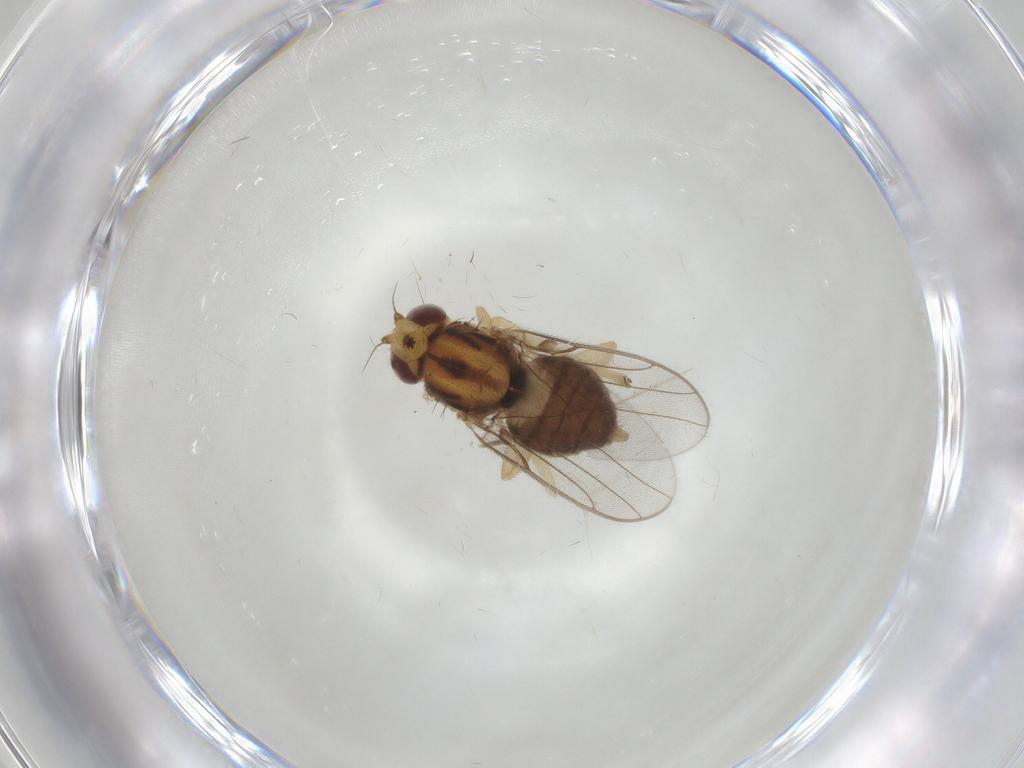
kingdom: Animalia
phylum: Arthropoda
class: Insecta
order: Diptera
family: Chloropidae
